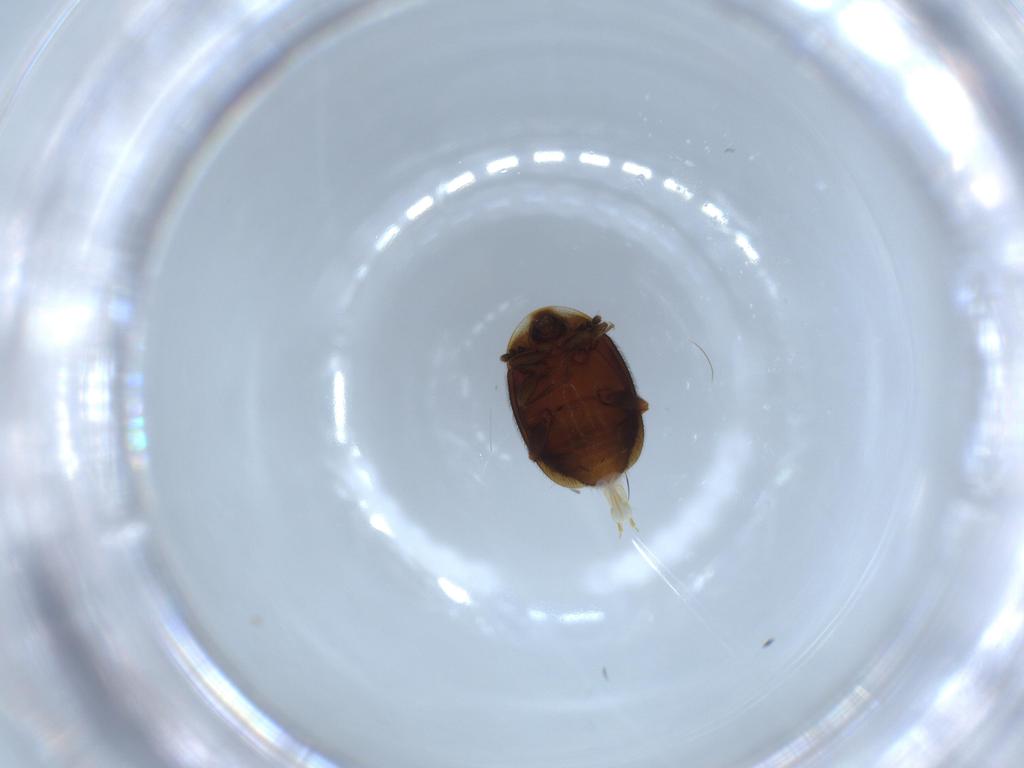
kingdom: Animalia
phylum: Arthropoda
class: Insecta
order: Coleoptera
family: Corylophidae
